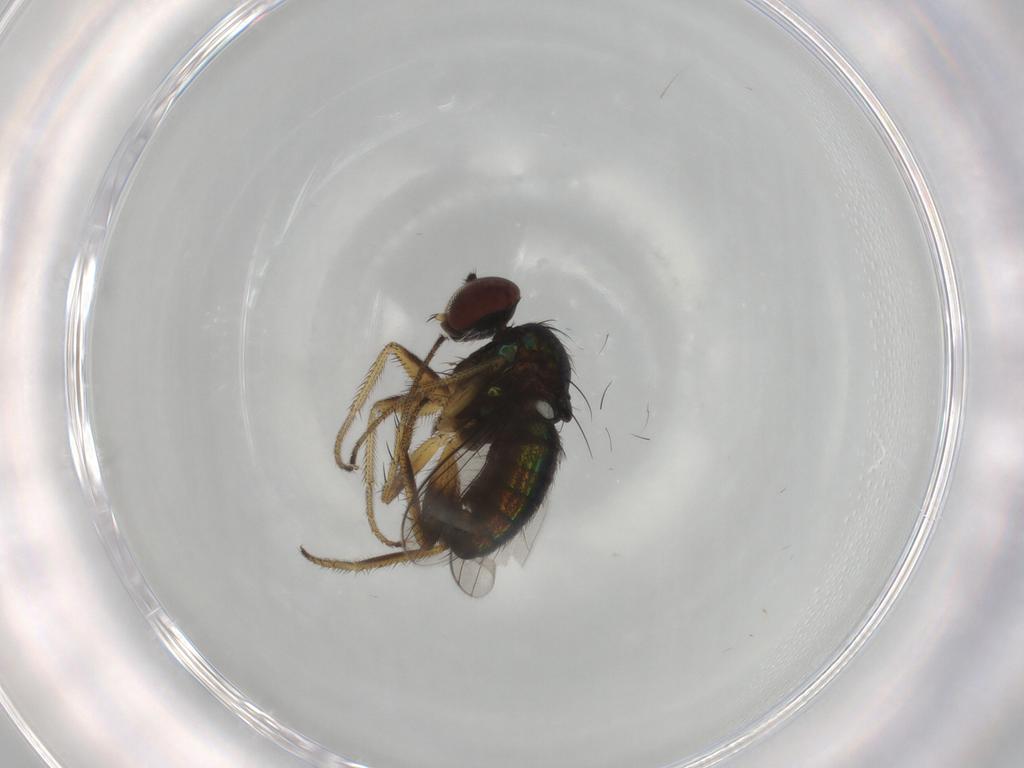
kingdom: Animalia
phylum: Arthropoda
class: Insecta
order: Diptera
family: Dolichopodidae
